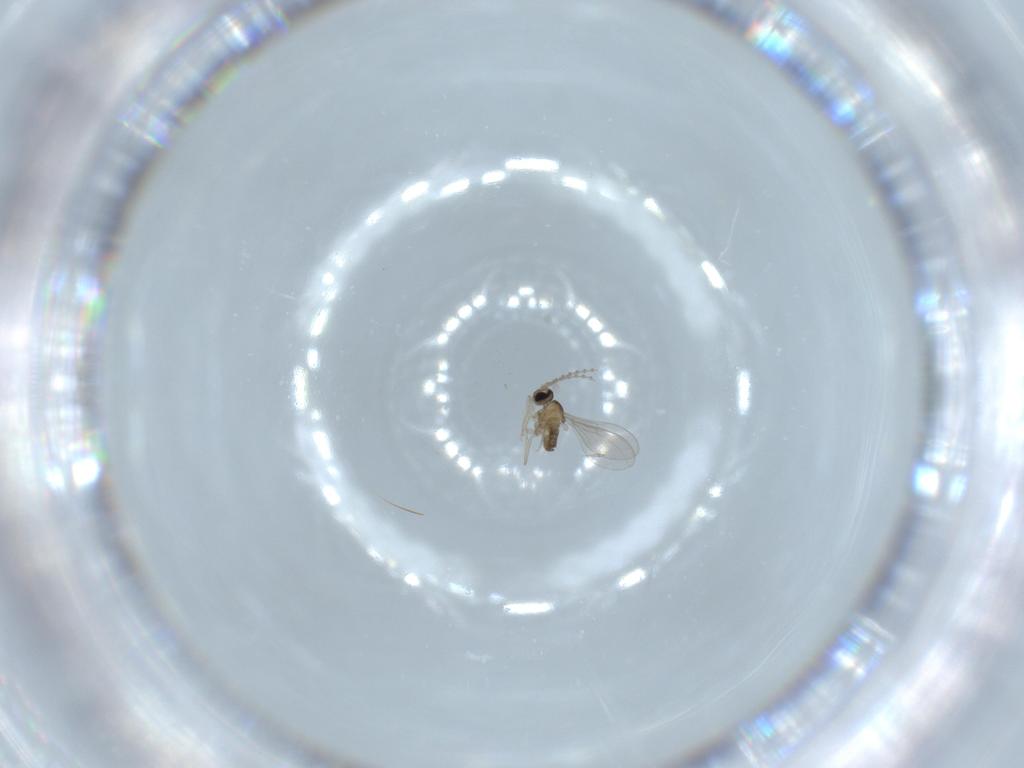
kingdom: Animalia
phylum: Arthropoda
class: Insecta
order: Diptera
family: Cecidomyiidae
